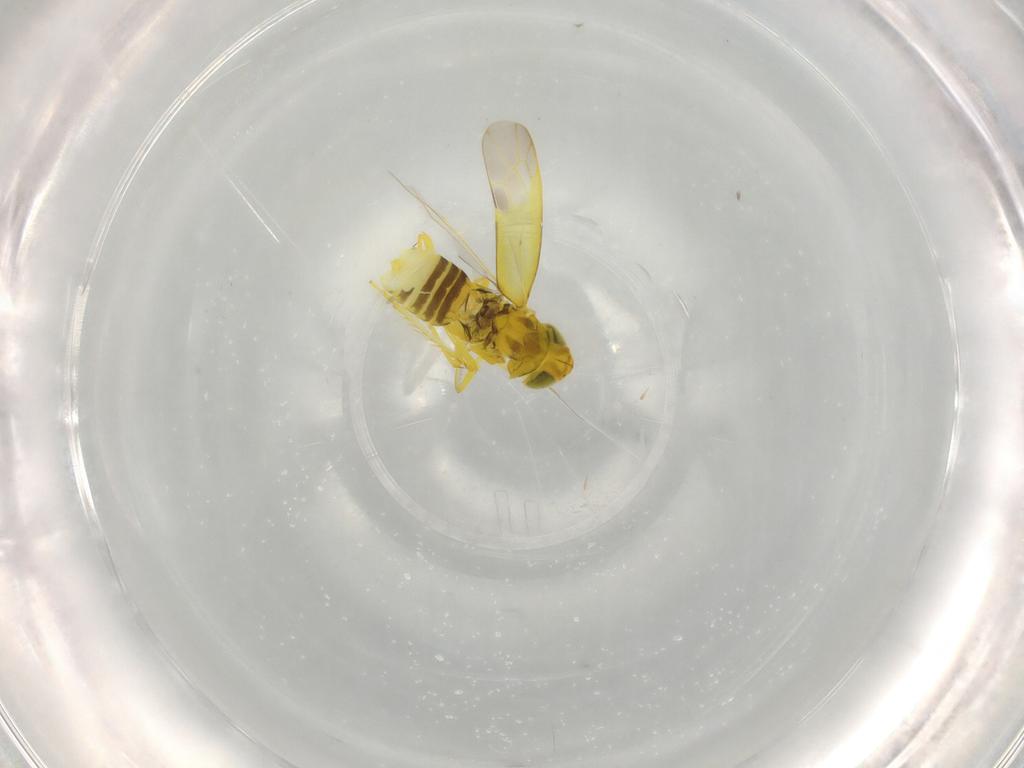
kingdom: Animalia
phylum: Arthropoda
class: Insecta
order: Hemiptera
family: Cicadellidae
